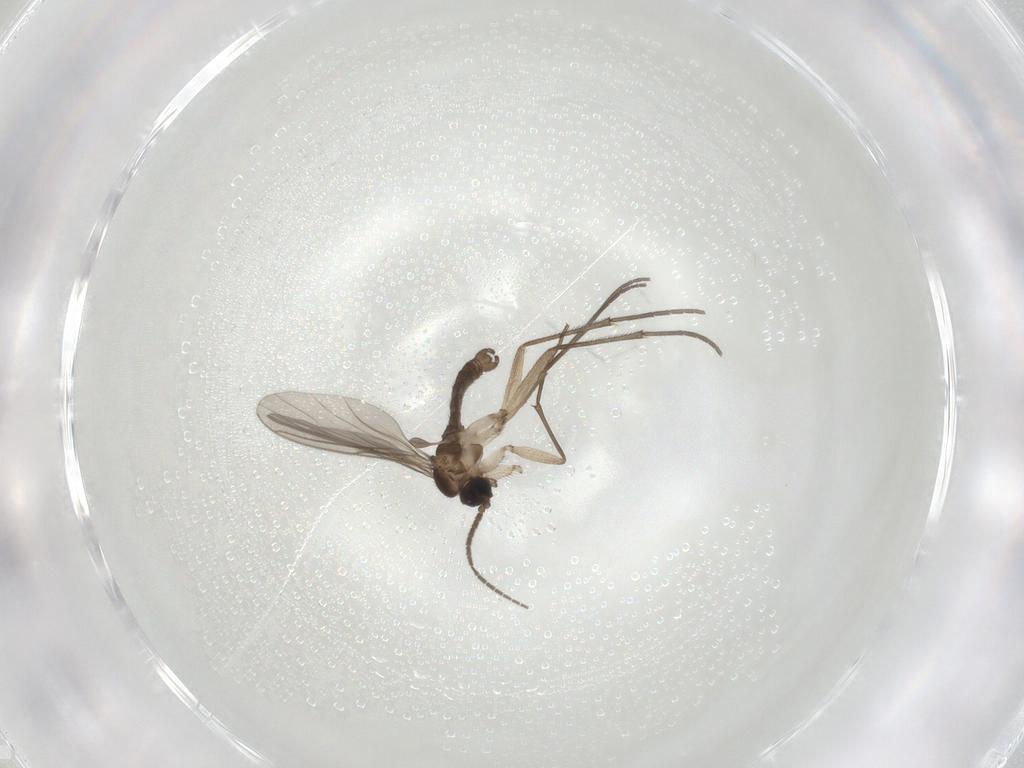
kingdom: Animalia
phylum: Arthropoda
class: Insecta
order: Diptera
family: Sciaridae
